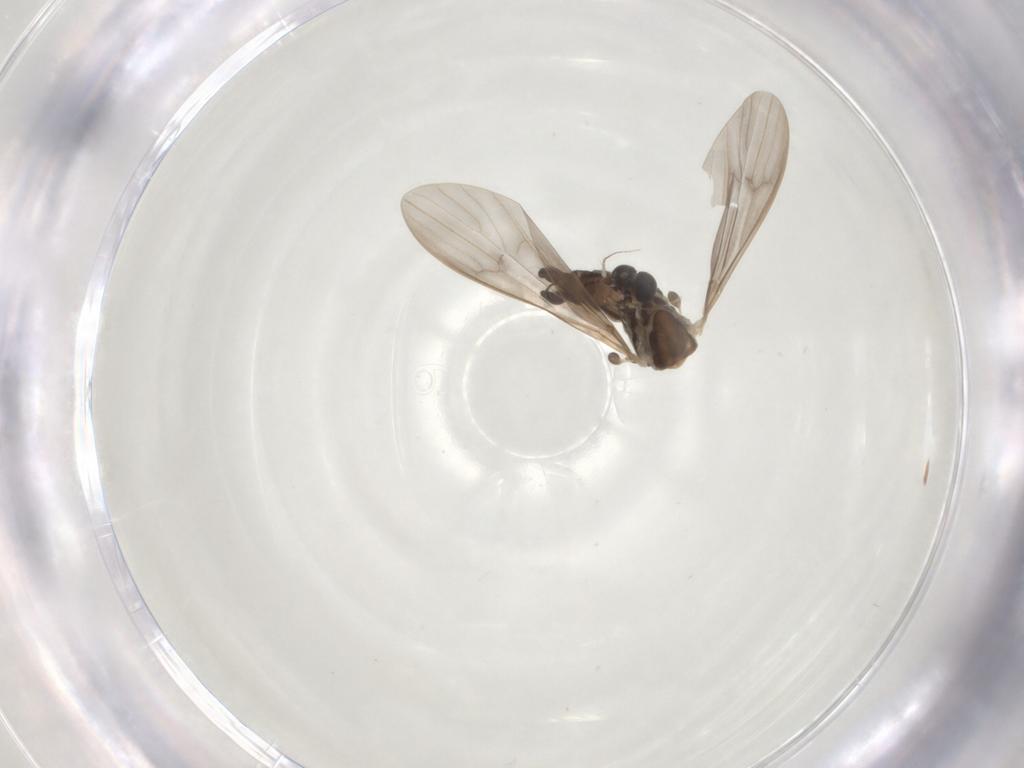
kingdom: Animalia
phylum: Arthropoda
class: Insecta
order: Diptera
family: Limoniidae
